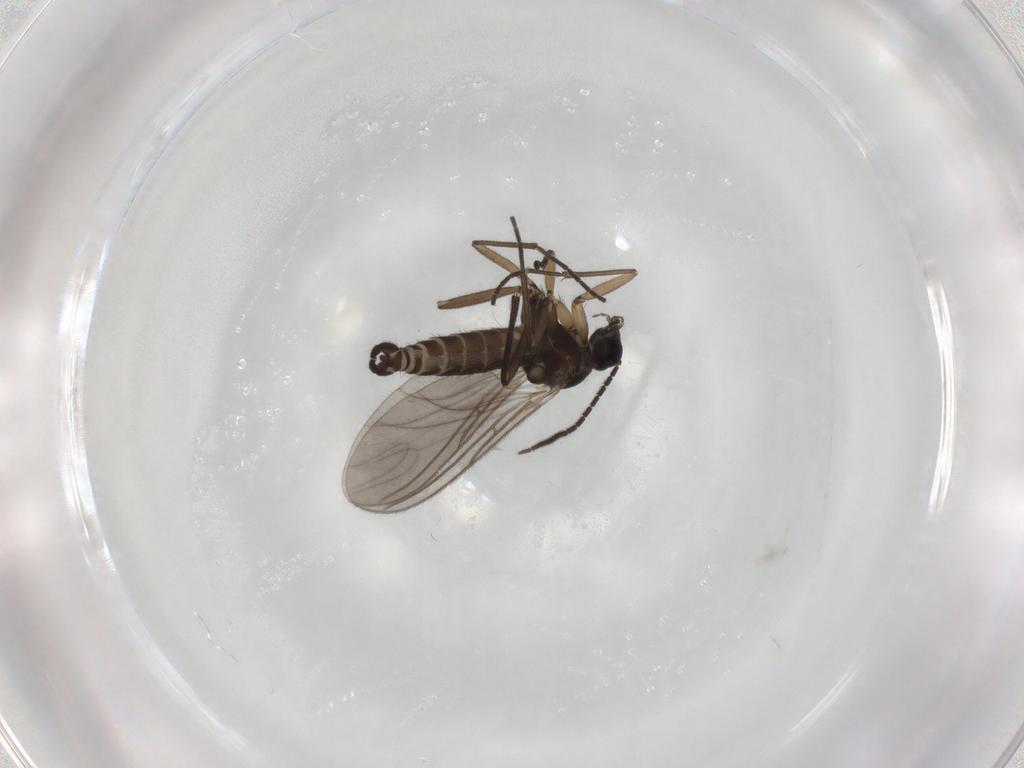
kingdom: Animalia
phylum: Arthropoda
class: Insecta
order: Diptera
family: Sciaridae
